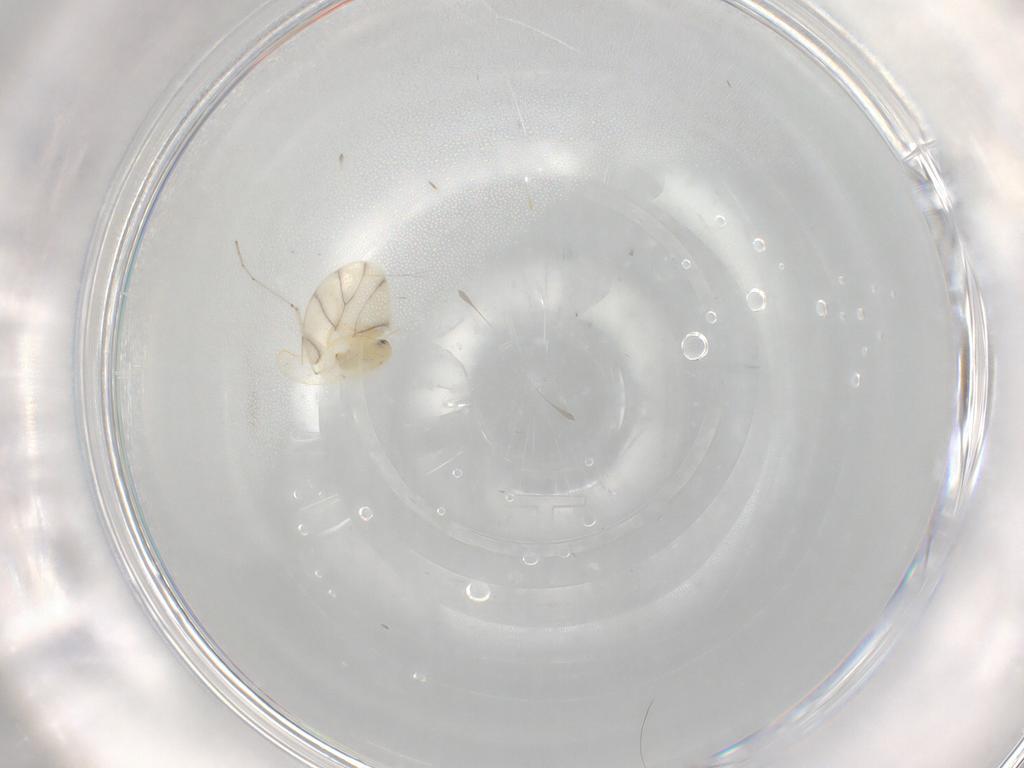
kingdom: Animalia
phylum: Arthropoda
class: Insecta
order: Hemiptera
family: Aleyrodidae
